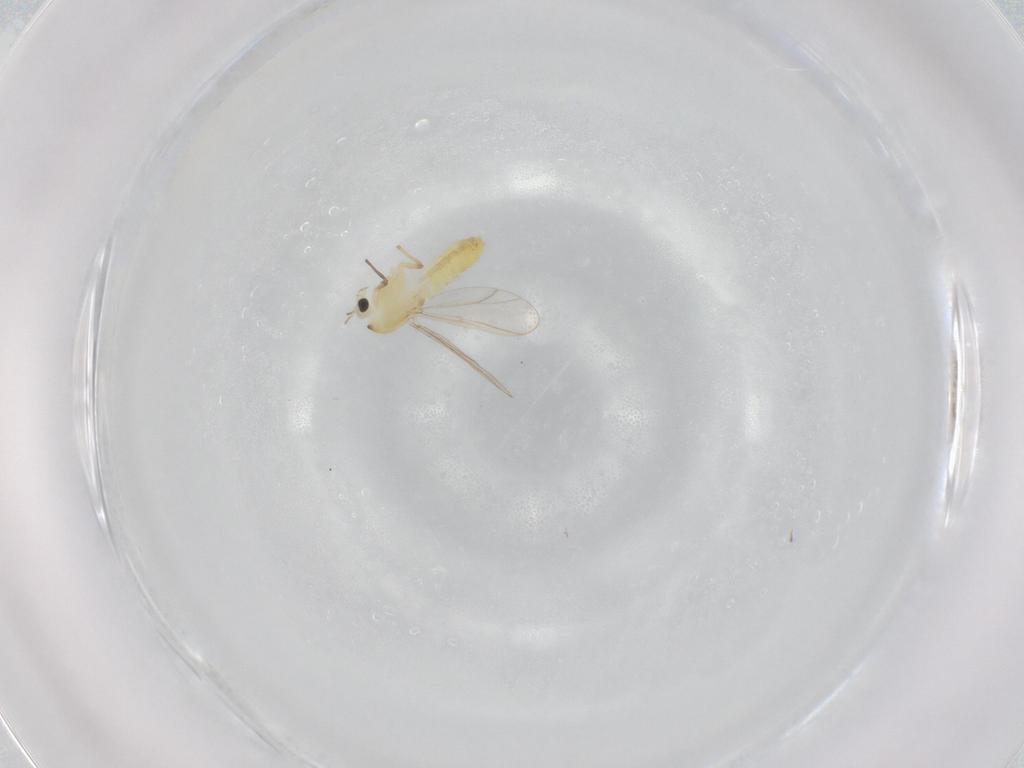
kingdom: Animalia
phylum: Arthropoda
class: Insecta
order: Diptera
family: Chironomidae
